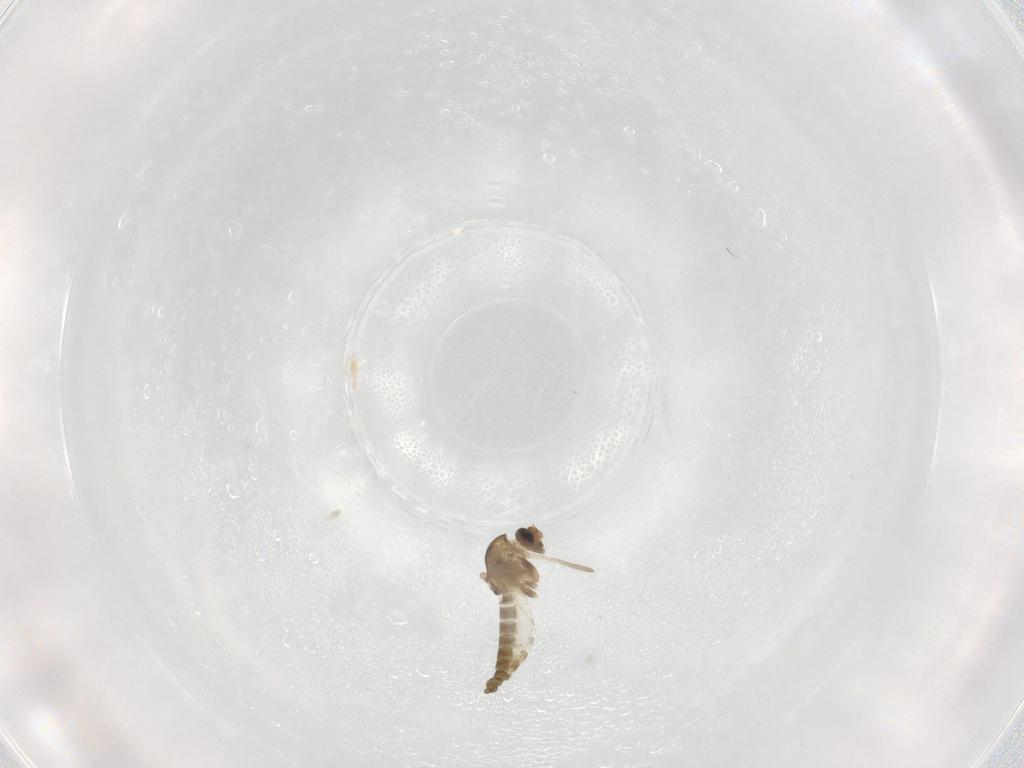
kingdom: Animalia
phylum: Arthropoda
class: Insecta
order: Diptera
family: Chironomidae
